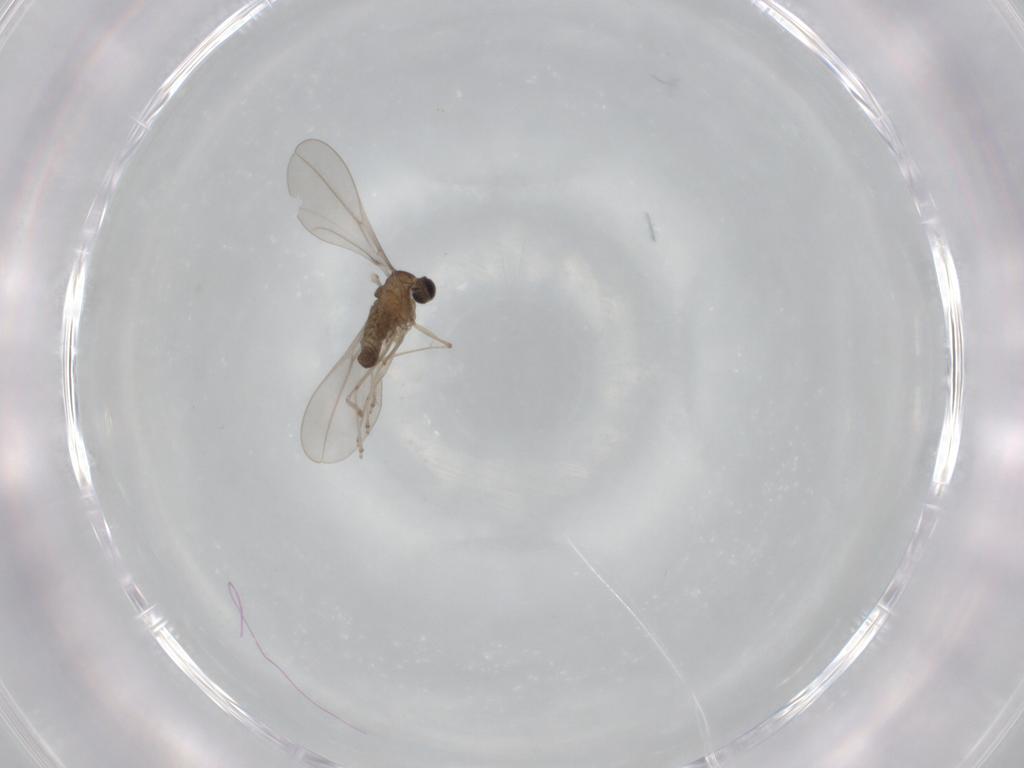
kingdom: Animalia
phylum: Arthropoda
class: Insecta
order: Diptera
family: Cecidomyiidae
